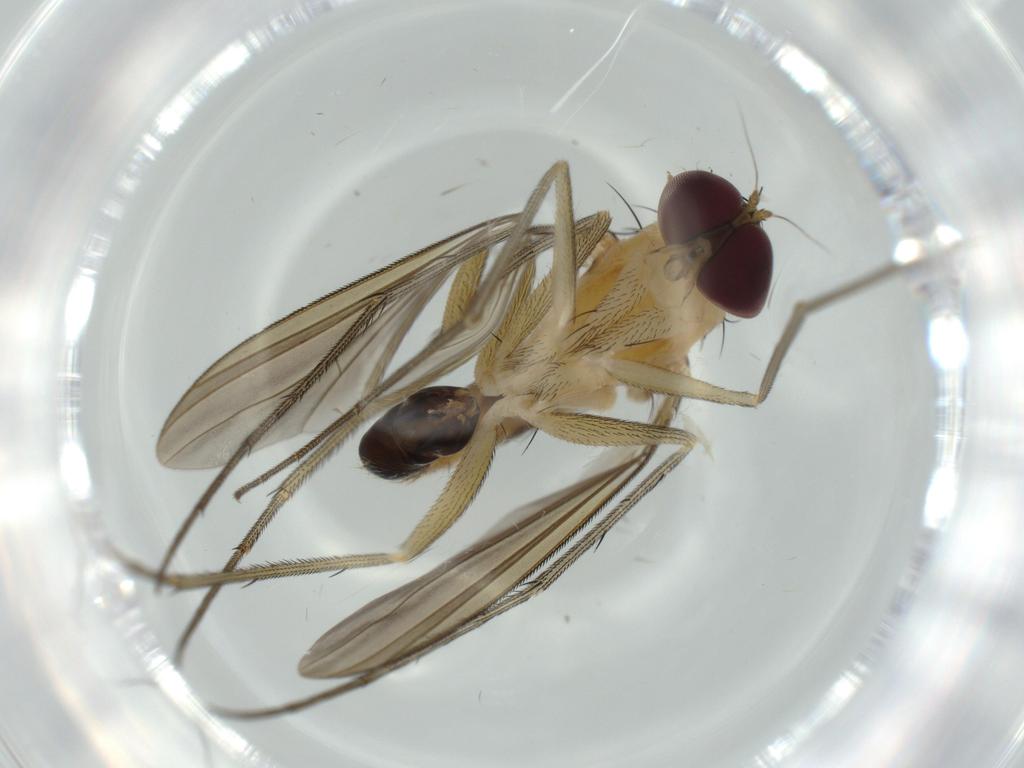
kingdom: Animalia
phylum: Arthropoda
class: Insecta
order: Diptera
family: Dolichopodidae
